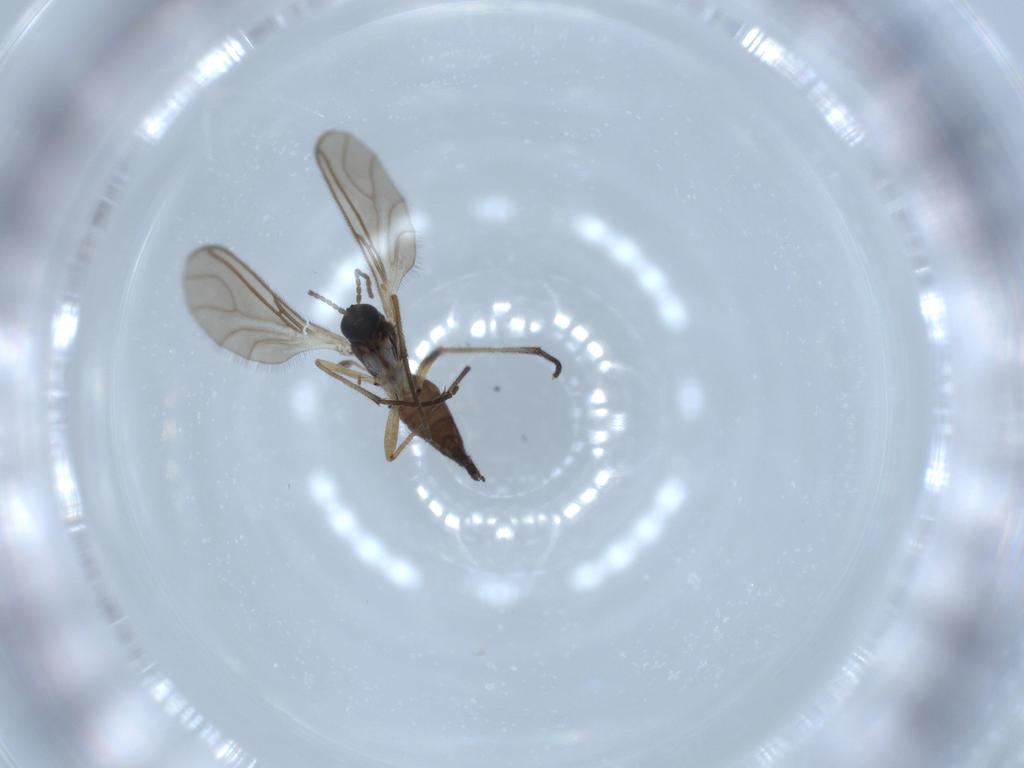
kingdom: Animalia
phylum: Arthropoda
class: Insecta
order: Diptera
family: Sciaridae
